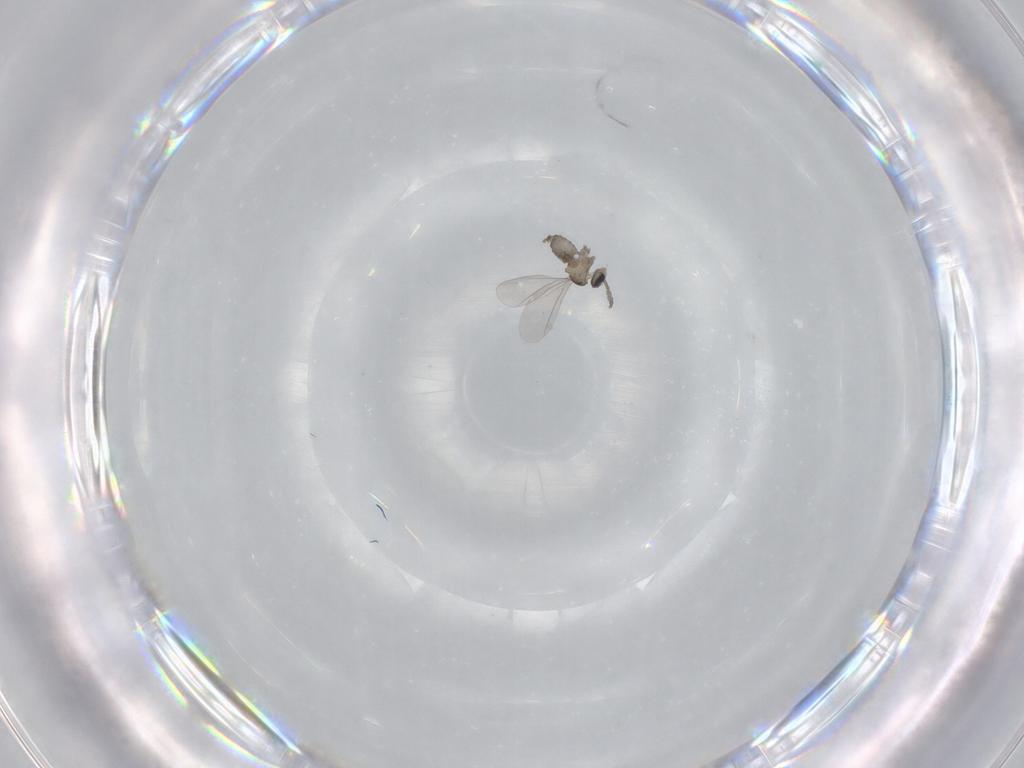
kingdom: Animalia
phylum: Arthropoda
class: Insecta
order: Diptera
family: Cecidomyiidae
